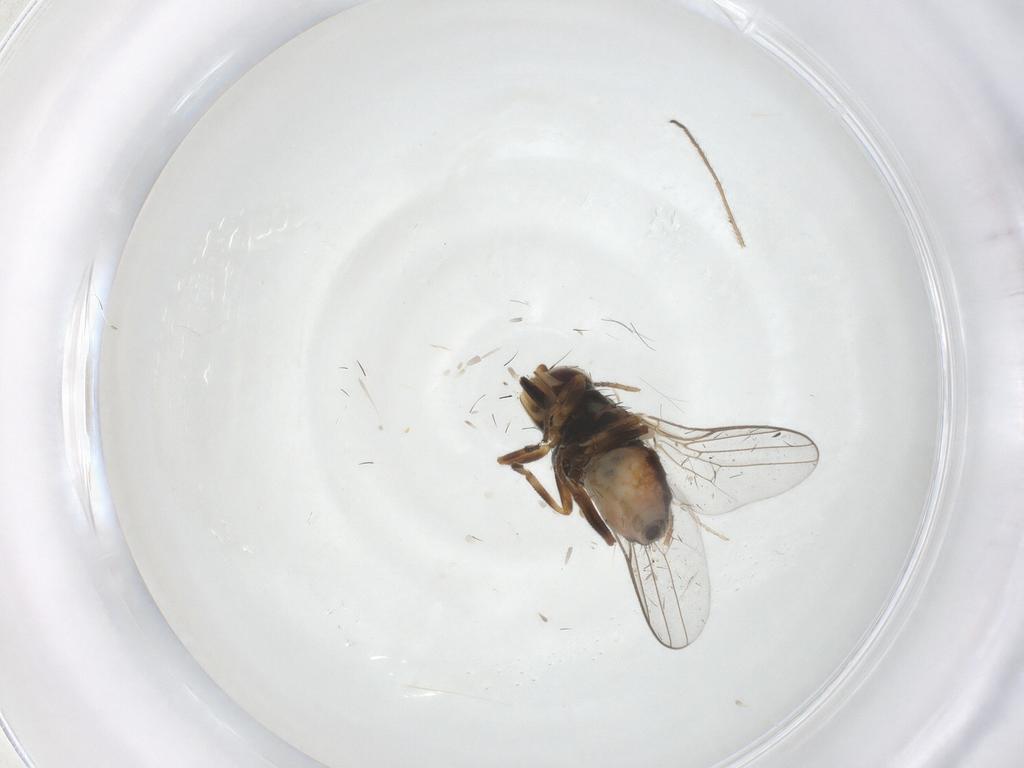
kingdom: Animalia
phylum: Arthropoda
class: Insecta
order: Diptera
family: Chloropidae
